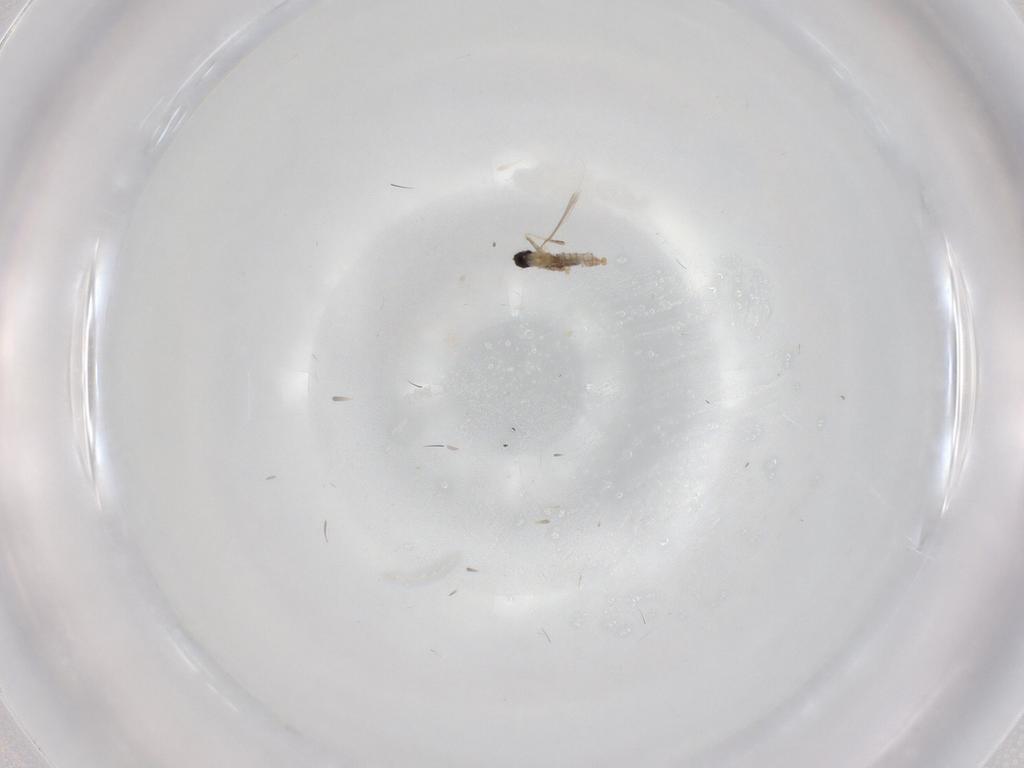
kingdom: Animalia
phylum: Arthropoda
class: Insecta
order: Diptera
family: Cecidomyiidae
